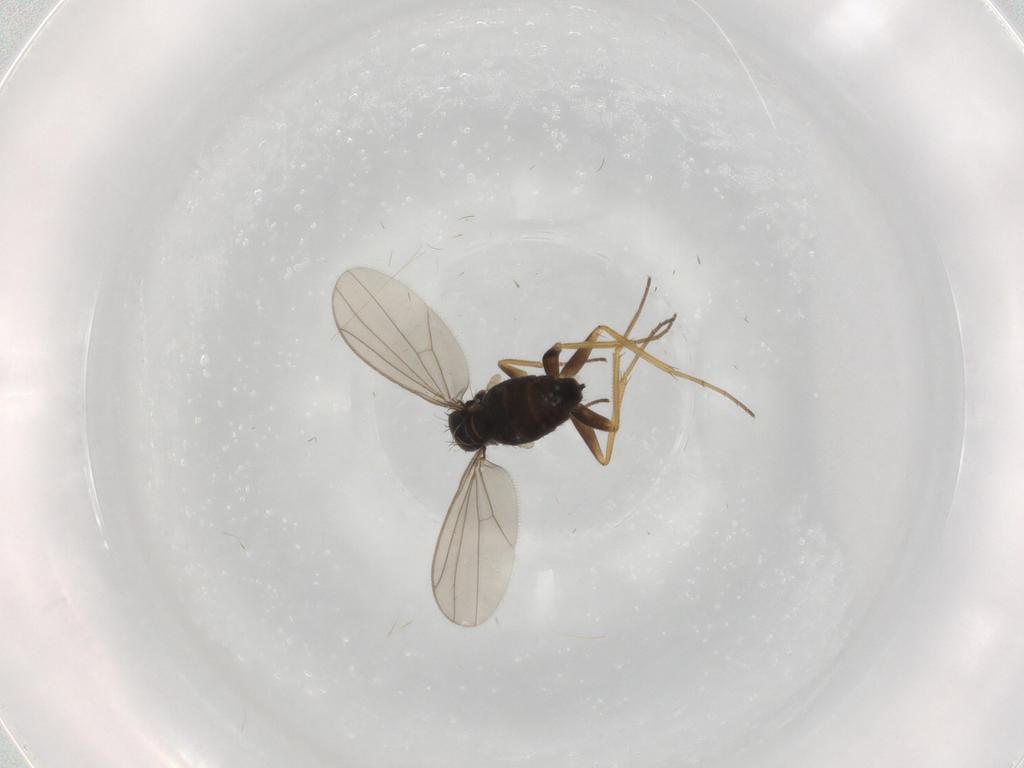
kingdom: Animalia
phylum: Arthropoda
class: Insecta
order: Diptera
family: Dolichopodidae
